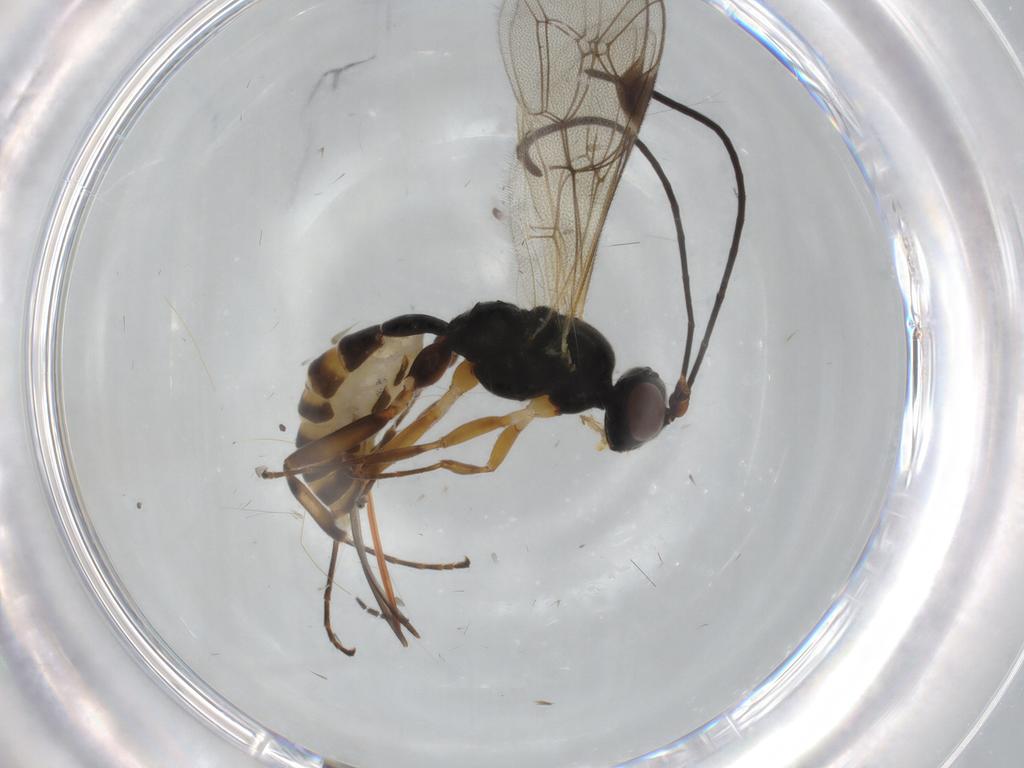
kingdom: Animalia
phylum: Arthropoda
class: Insecta
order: Hymenoptera
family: Ichneumonidae
